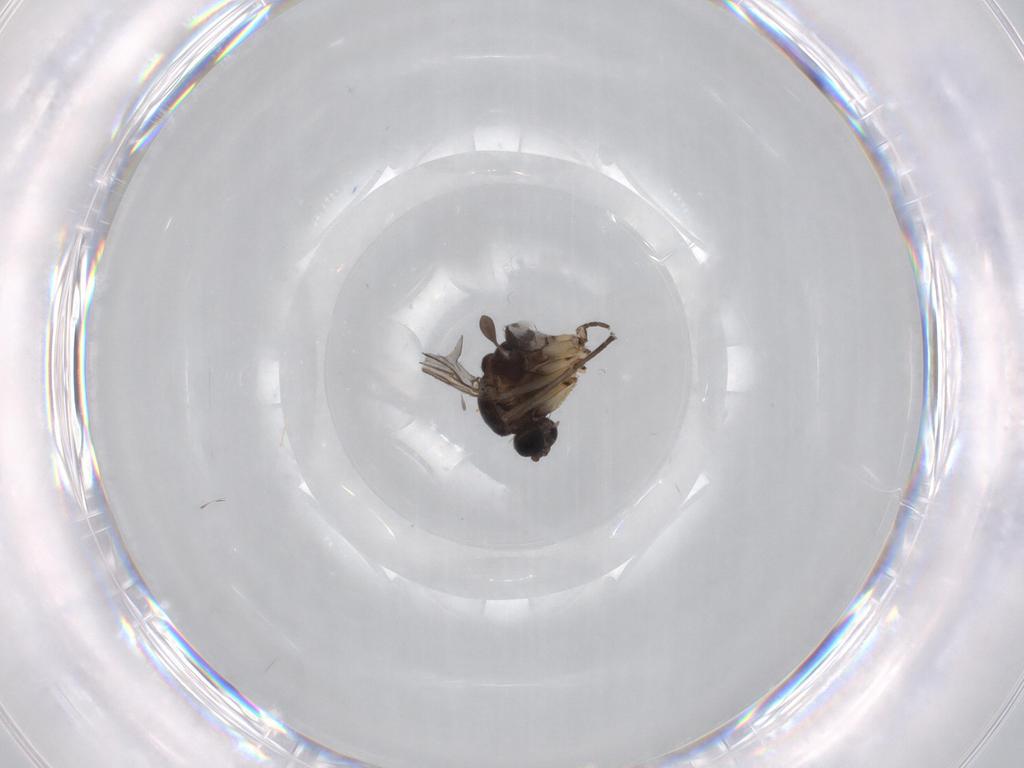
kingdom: Animalia
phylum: Arthropoda
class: Insecta
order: Diptera
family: Sciaridae
